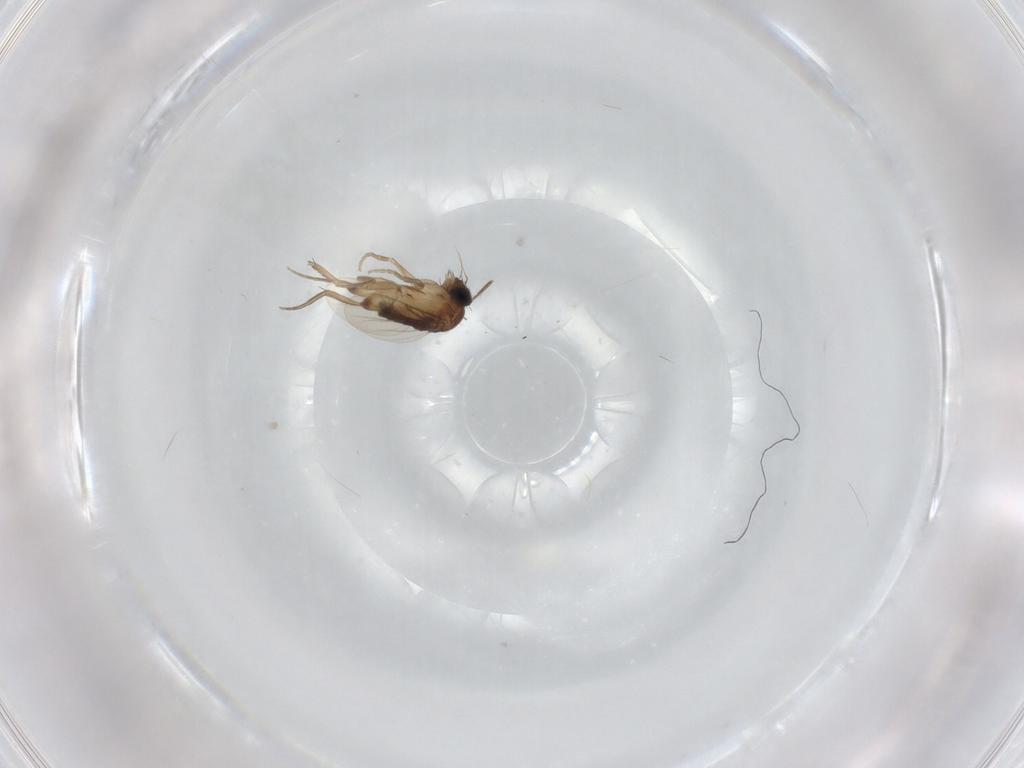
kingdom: Animalia
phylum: Arthropoda
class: Insecta
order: Diptera
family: Phoridae
